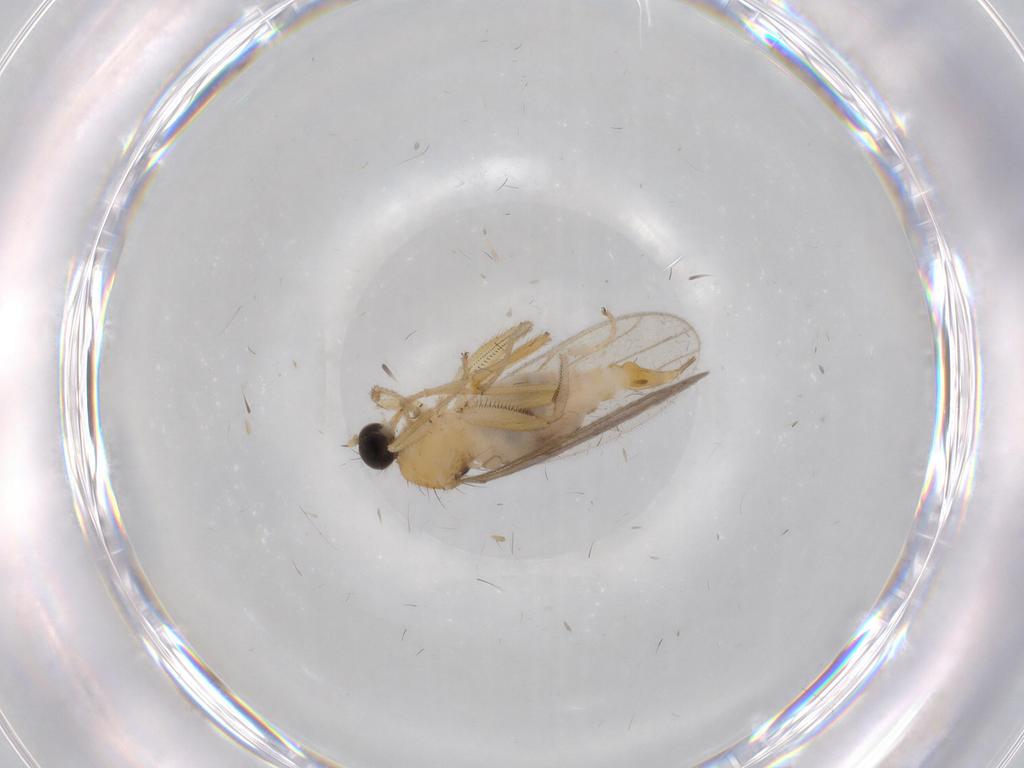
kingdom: Animalia
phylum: Arthropoda
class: Insecta
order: Diptera
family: Hybotidae
